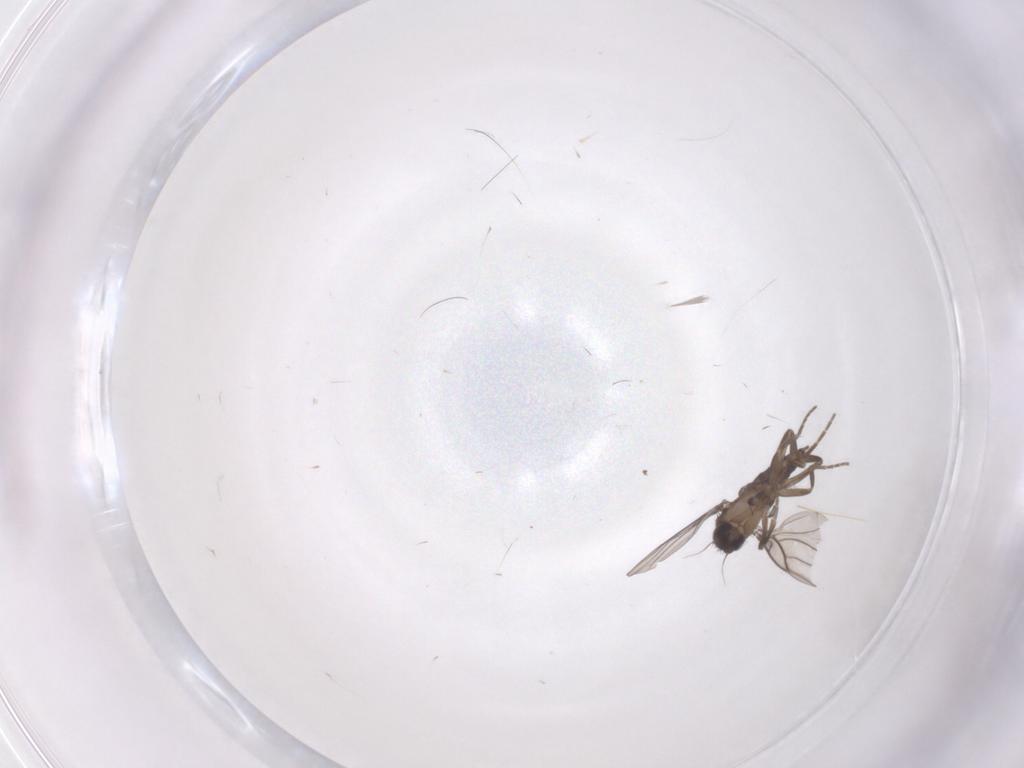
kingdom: Animalia
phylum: Arthropoda
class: Insecta
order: Diptera
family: Phoridae
